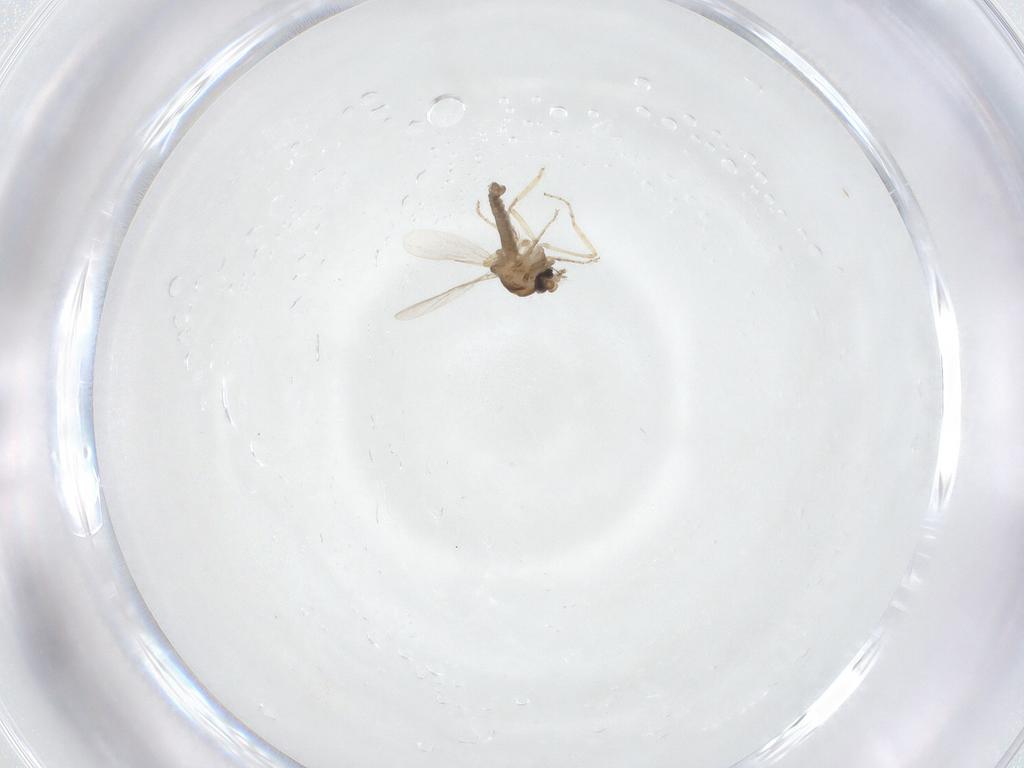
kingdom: Animalia
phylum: Arthropoda
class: Insecta
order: Diptera
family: Ceratopogonidae
